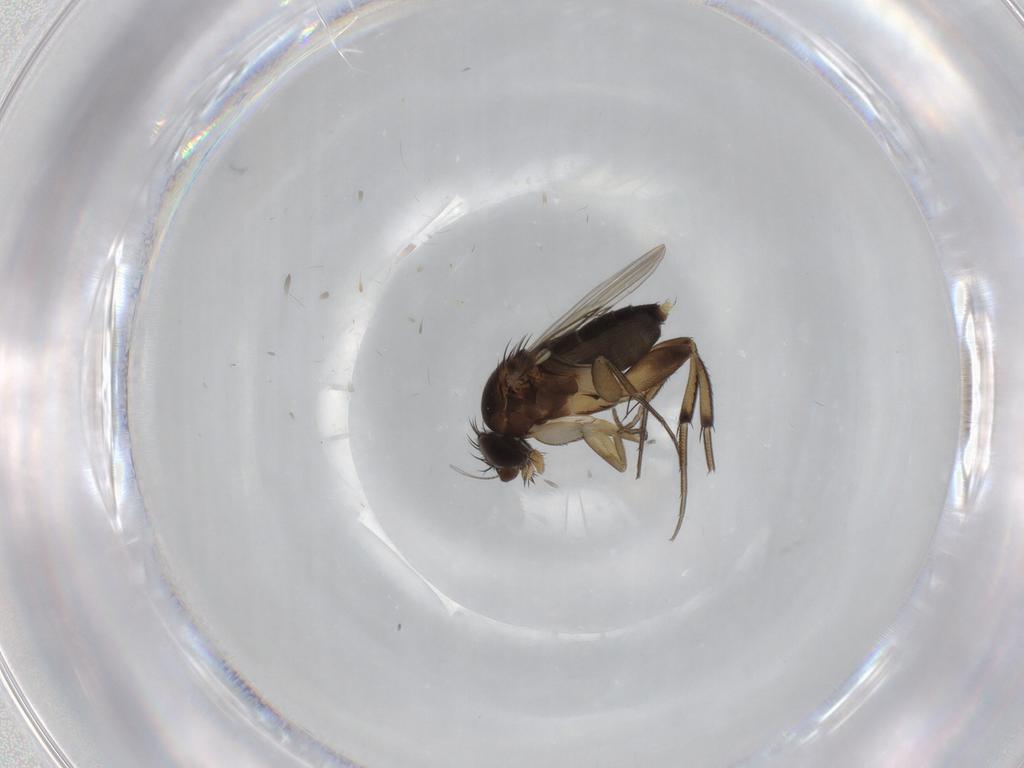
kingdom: Animalia
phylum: Arthropoda
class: Insecta
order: Diptera
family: Phoridae
